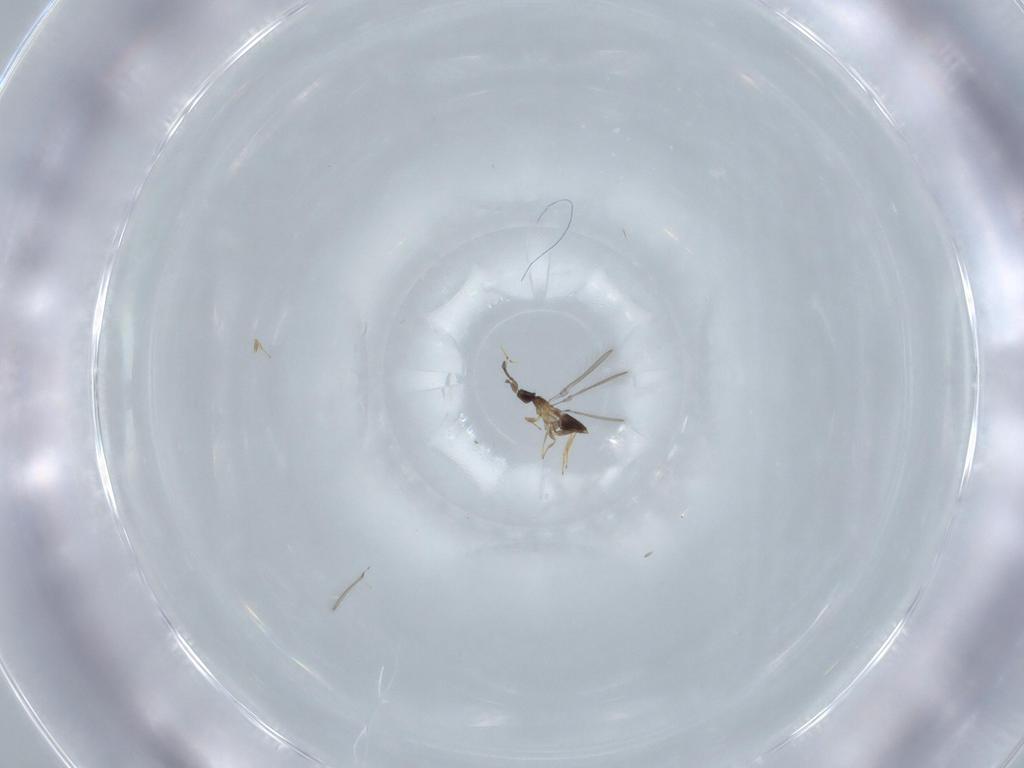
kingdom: Animalia
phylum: Arthropoda
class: Insecta
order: Hymenoptera
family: Mymaridae
